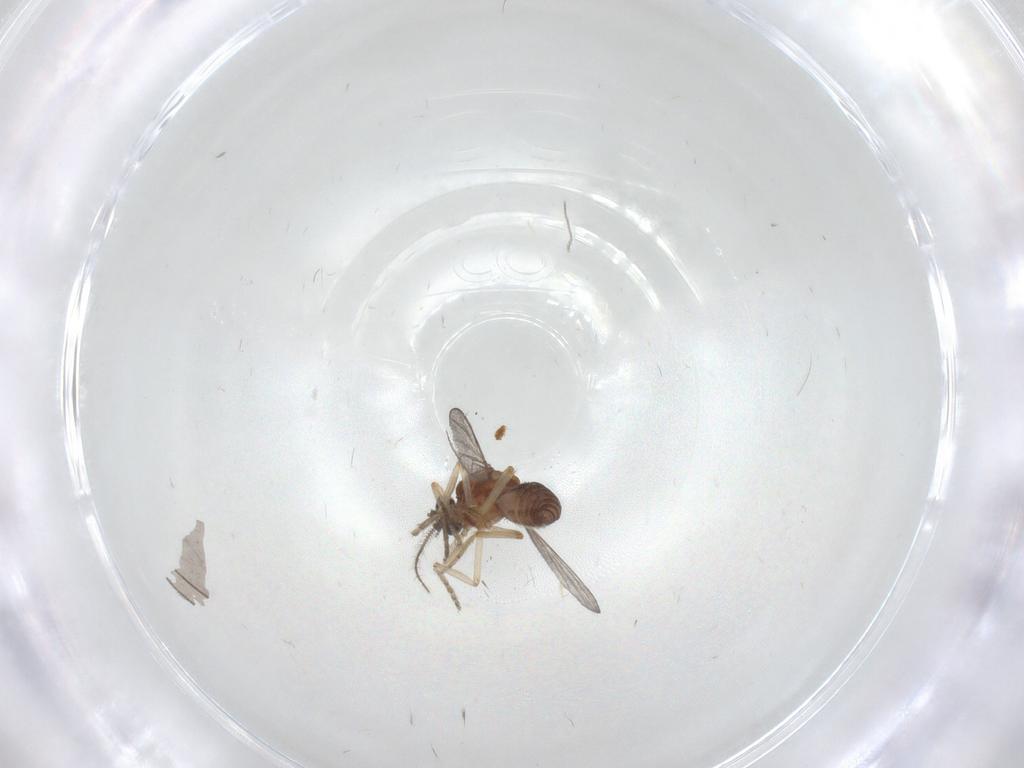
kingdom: Animalia
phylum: Arthropoda
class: Insecta
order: Diptera
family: Ceratopogonidae
